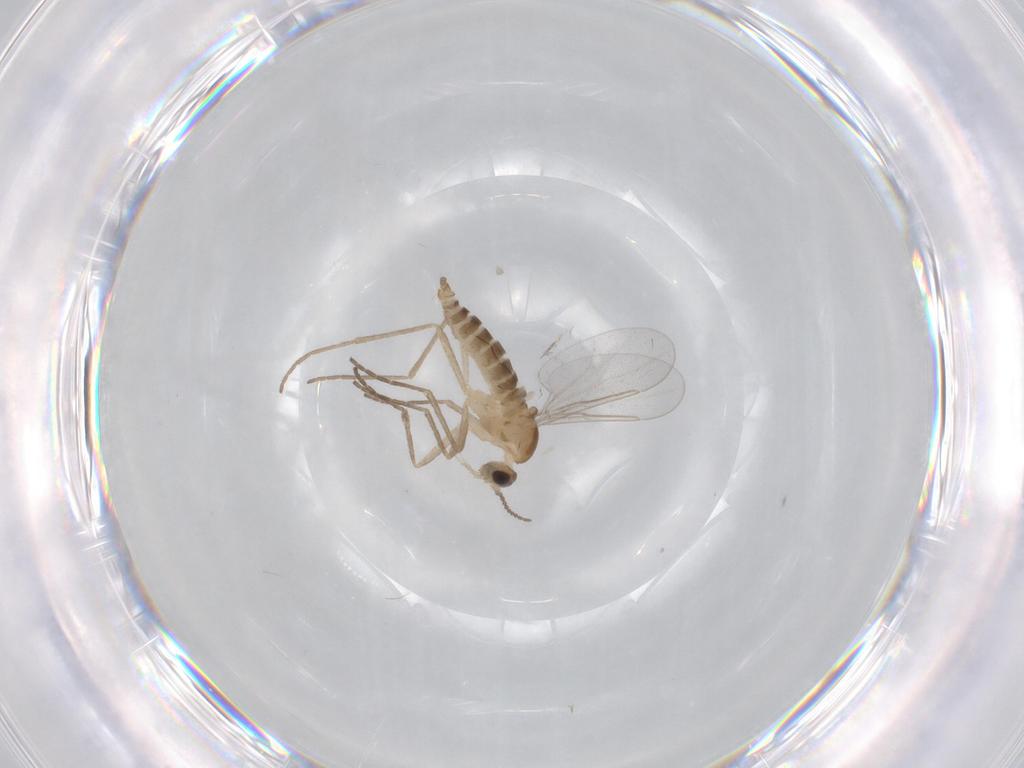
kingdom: Animalia
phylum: Arthropoda
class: Insecta
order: Diptera
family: Cecidomyiidae
